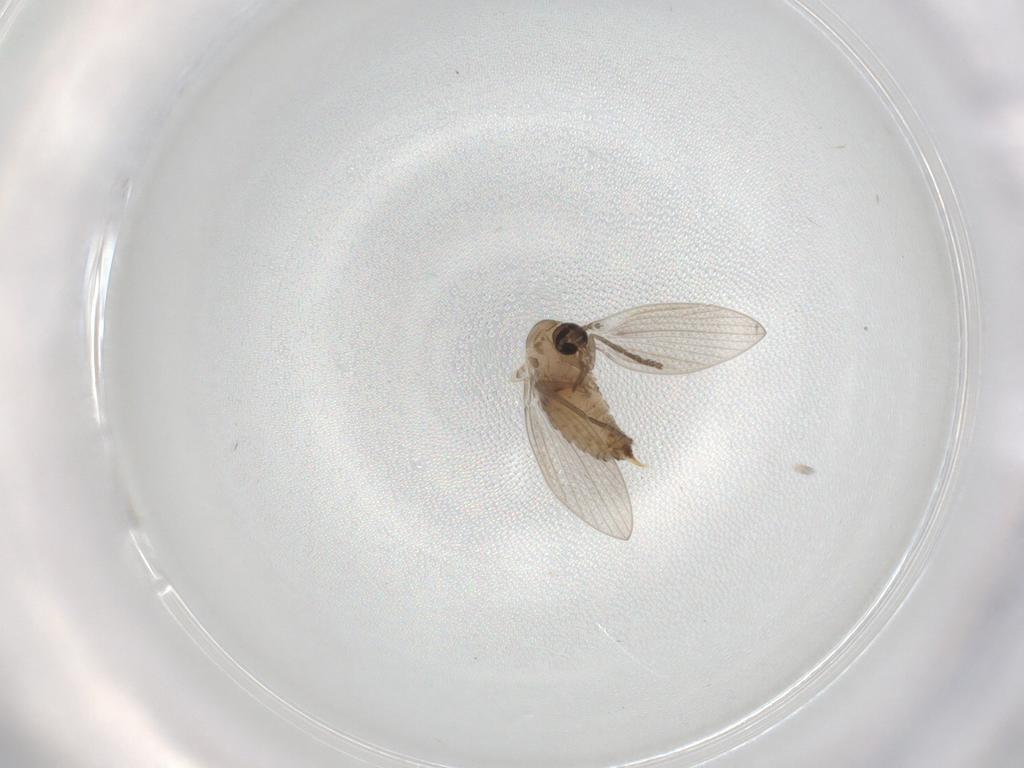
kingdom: Animalia
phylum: Arthropoda
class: Insecta
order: Diptera
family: Psychodidae
